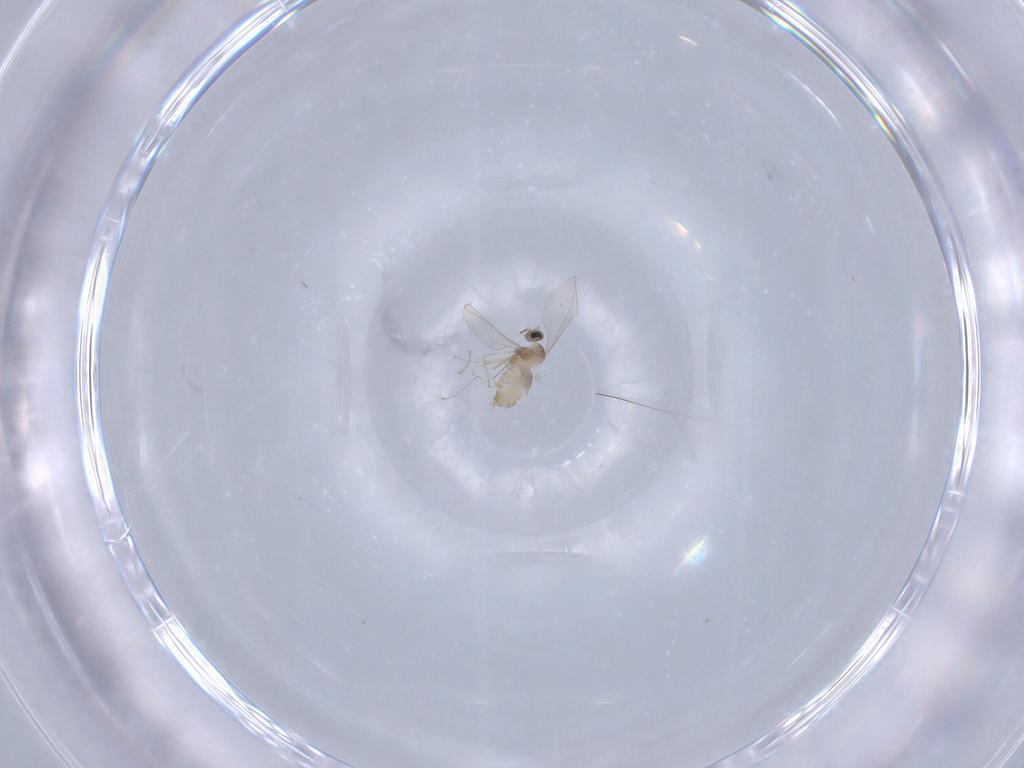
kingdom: Animalia
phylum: Arthropoda
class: Insecta
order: Diptera
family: Cecidomyiidae
